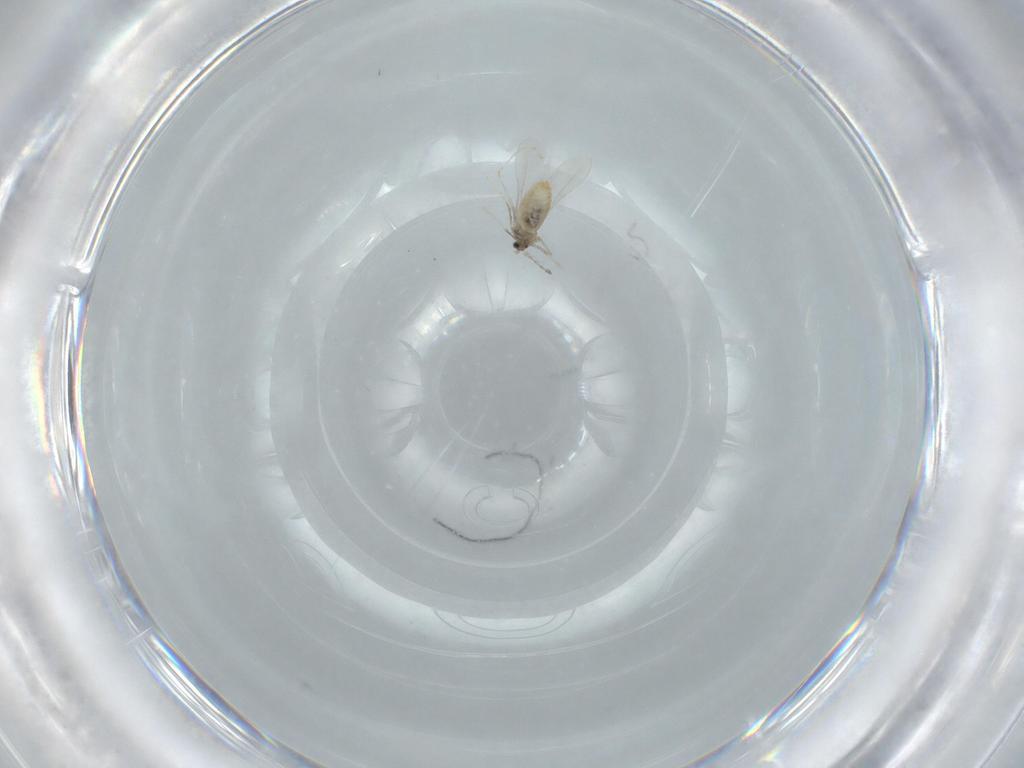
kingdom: Animalia
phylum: Arthropoda
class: Insecta
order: Diptera
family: Cecidomyiidae
